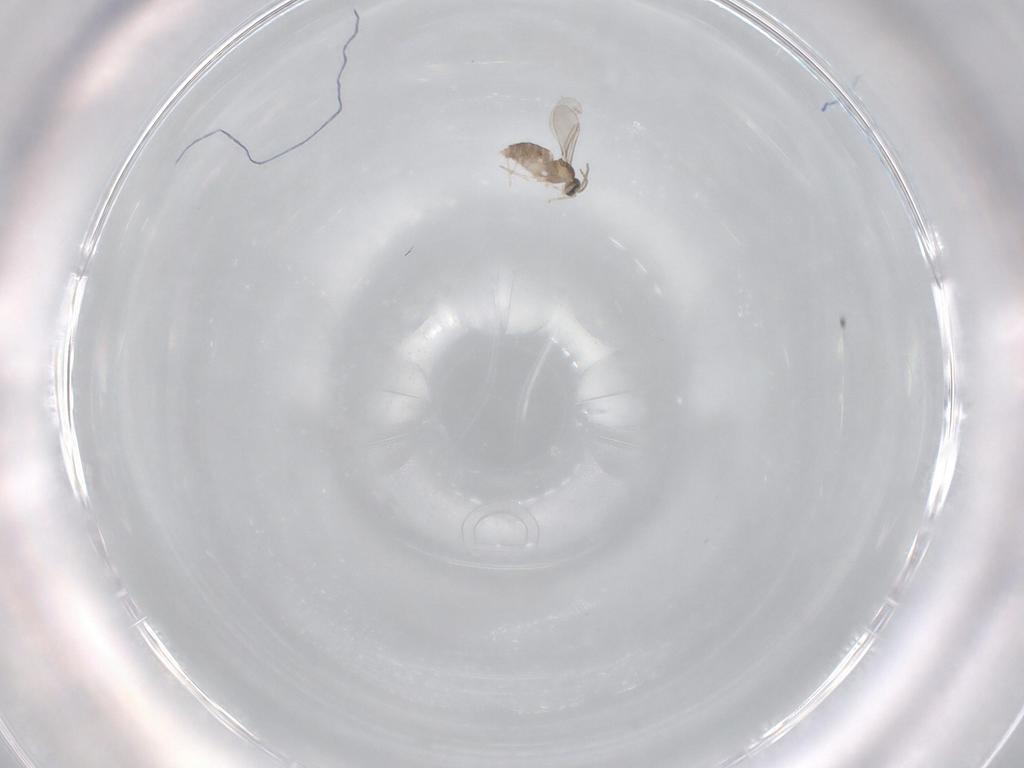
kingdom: Animalia
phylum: Arthropoda
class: Insecta
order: Diptera
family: Cecidomyiidae
